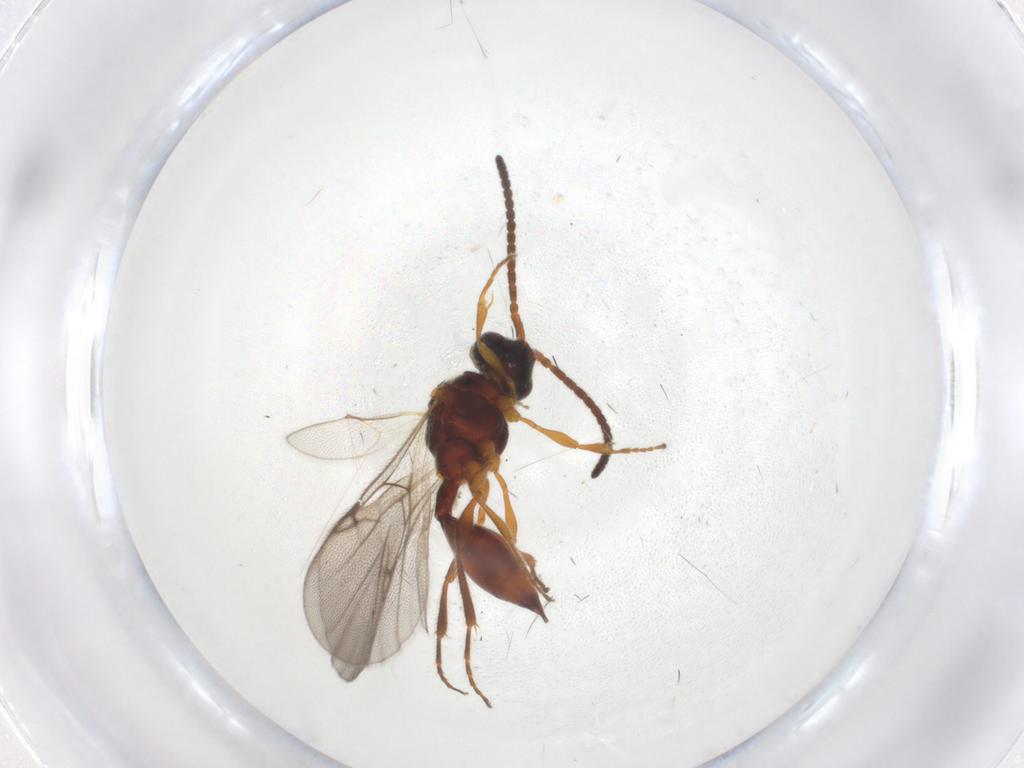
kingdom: Animalia
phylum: Arthropoda
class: Insecta
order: Hymenoptera
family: Diapriidae
